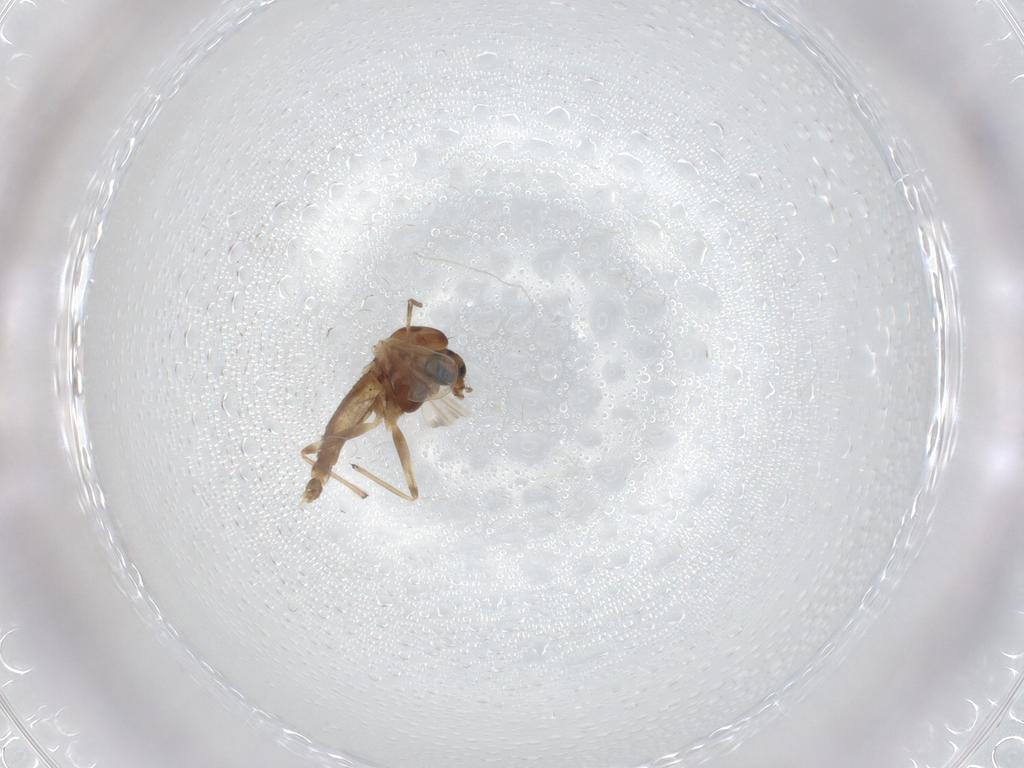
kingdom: Animalia
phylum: Arthropoda
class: Insecta
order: Diptera
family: Chironomidae
